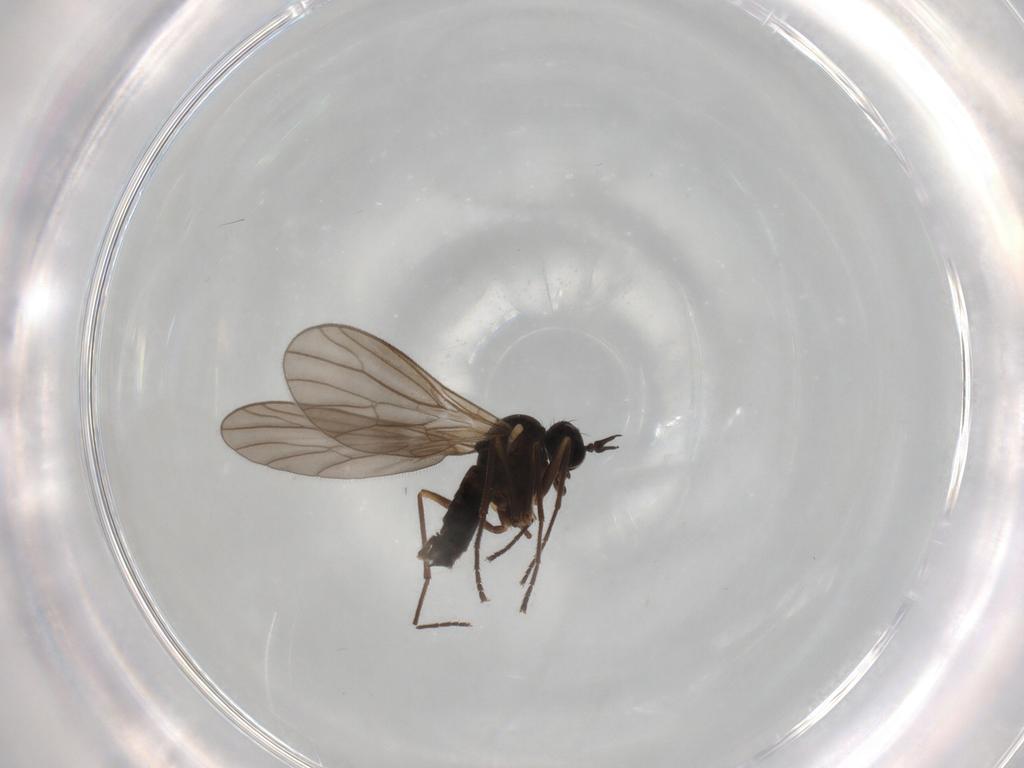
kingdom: Animalia
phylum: Arthropoda
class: Insecta
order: Diptera
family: Empididae
